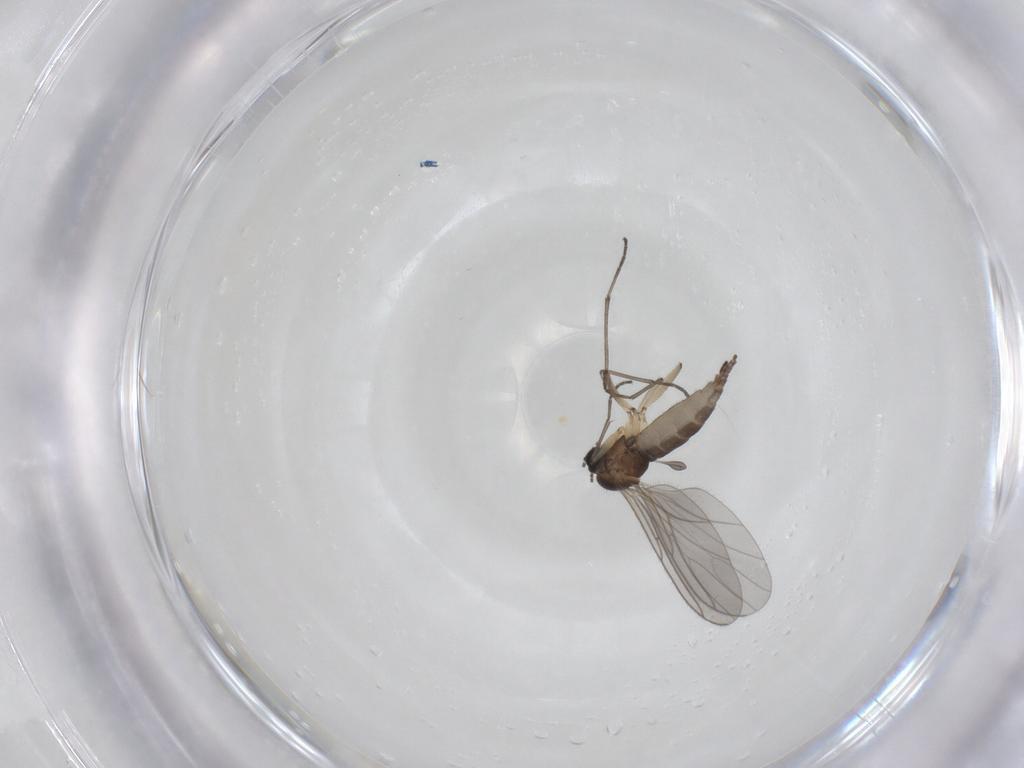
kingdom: Animalia
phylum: Arthropoda
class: Insecta
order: Diptera
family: Sciaridae
